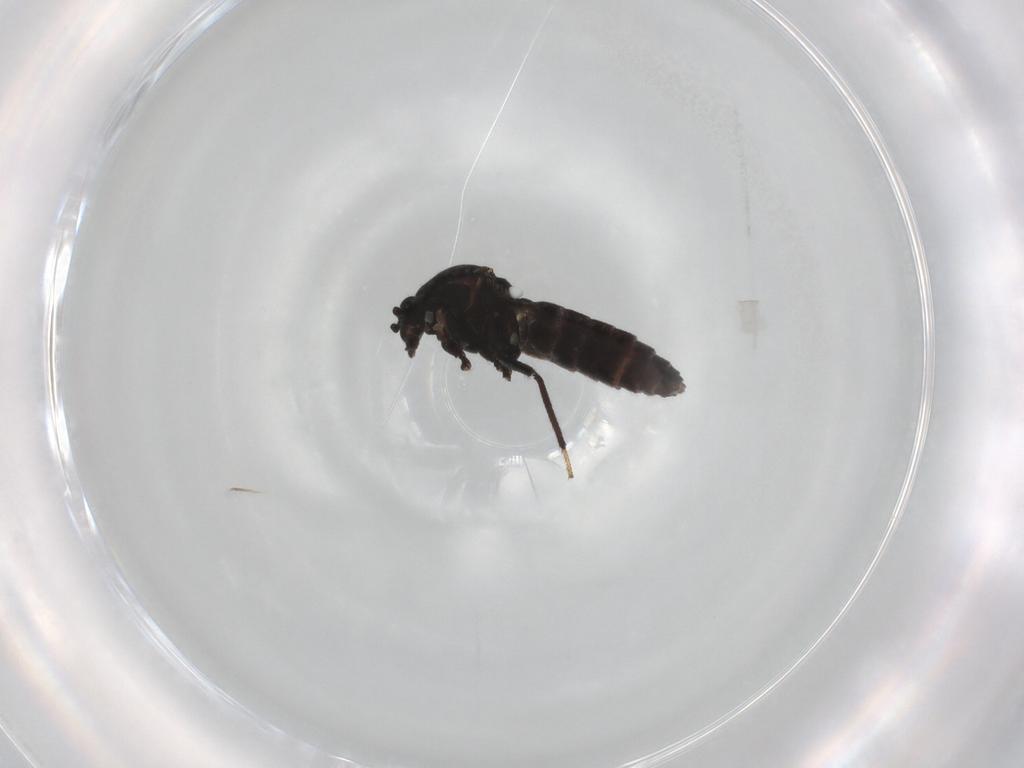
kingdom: Animalia
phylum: Arthropoda
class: Insecta
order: Diptera
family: Ceratopogonidae
